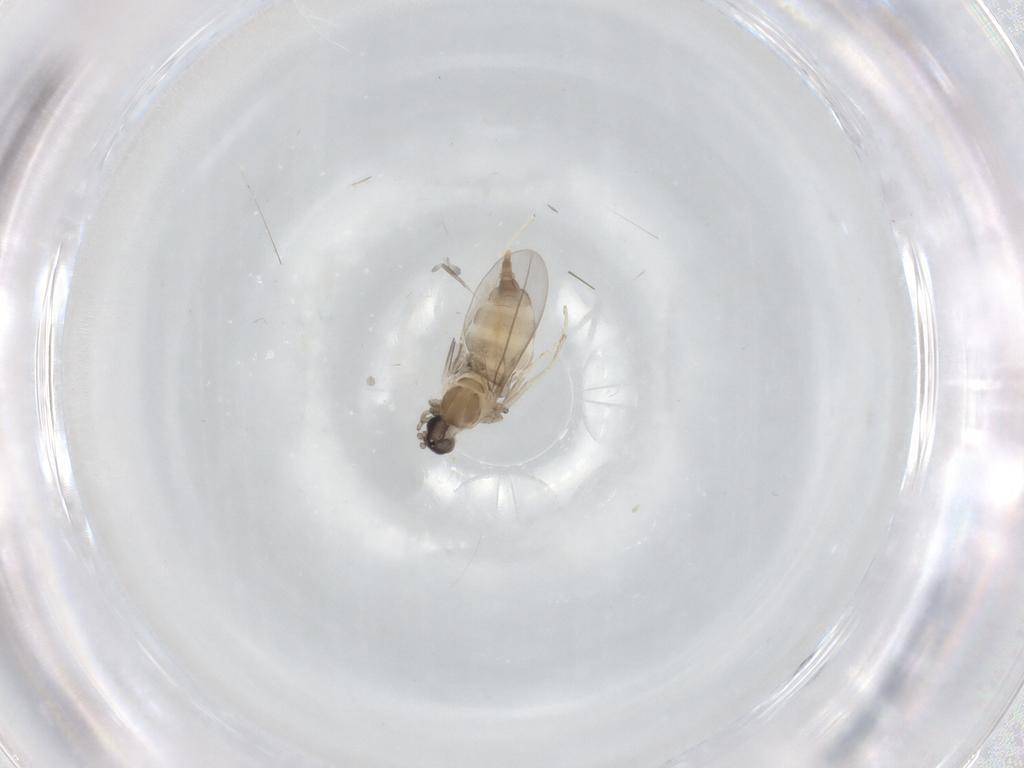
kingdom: Animalia
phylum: Arthropoda
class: Insecta
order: Diptera
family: Cecidomyiidae
